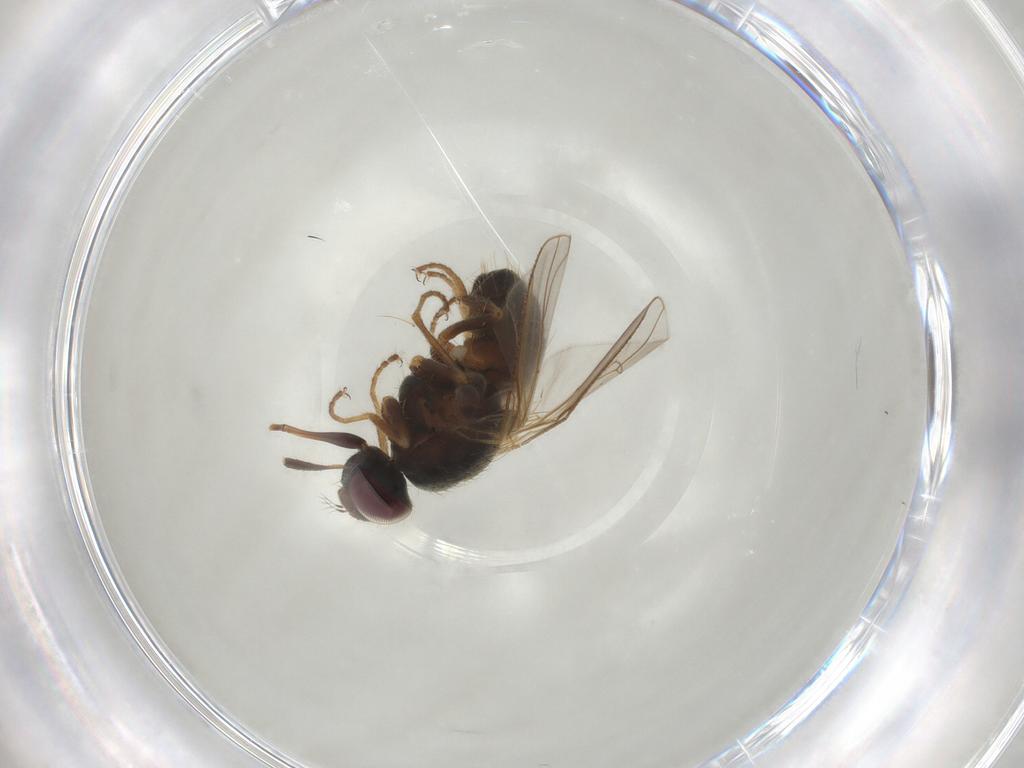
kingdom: Animalia
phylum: Arthropoda
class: Insecta
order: Diptera
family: Muscidae
